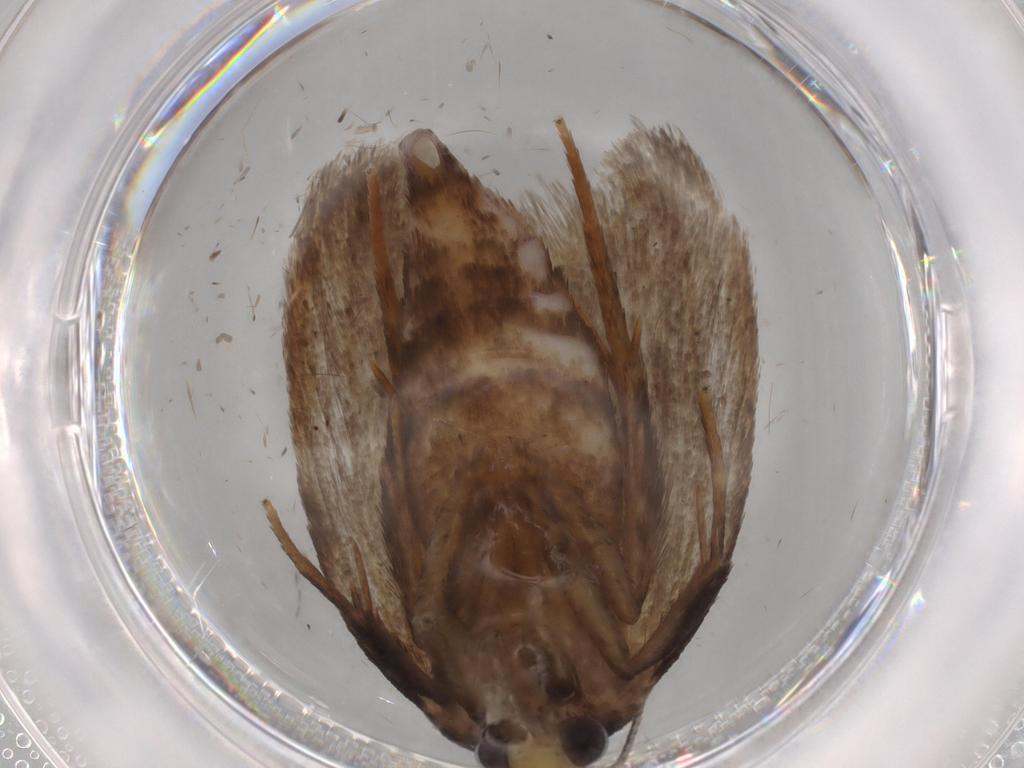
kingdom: Animalia
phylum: Arthropoda
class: Insecta
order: Lepidoptera
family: Oecophoridae
